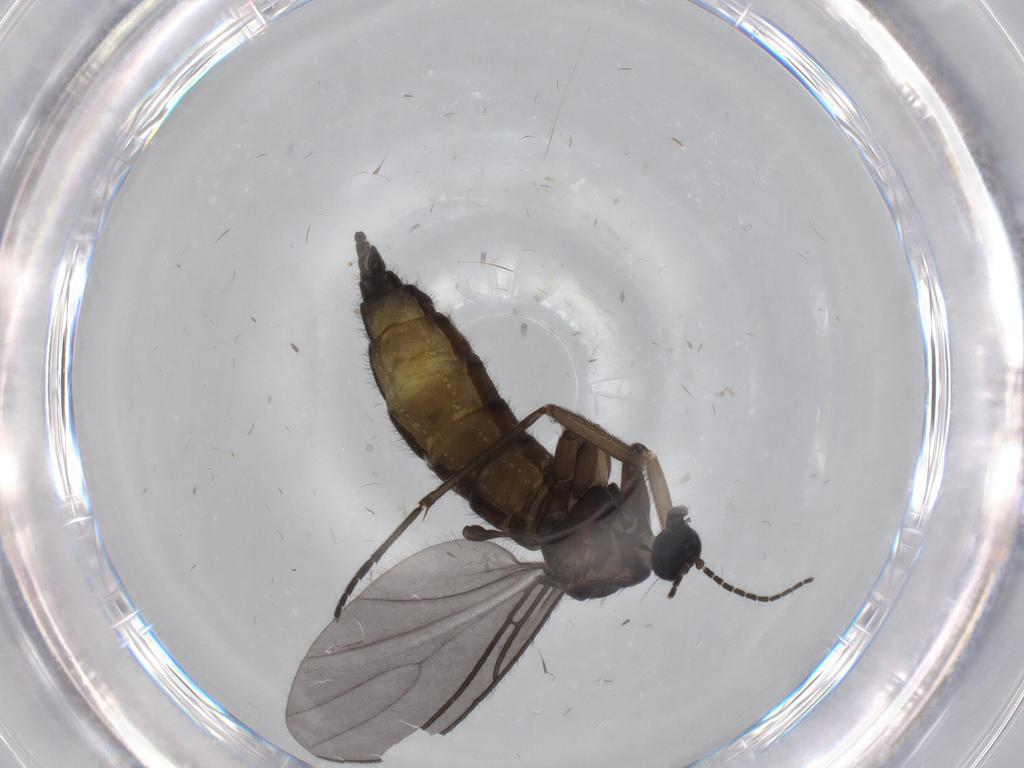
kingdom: Animalia
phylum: Arthropoda
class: Insecta
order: Diptera
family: Sciaridae
